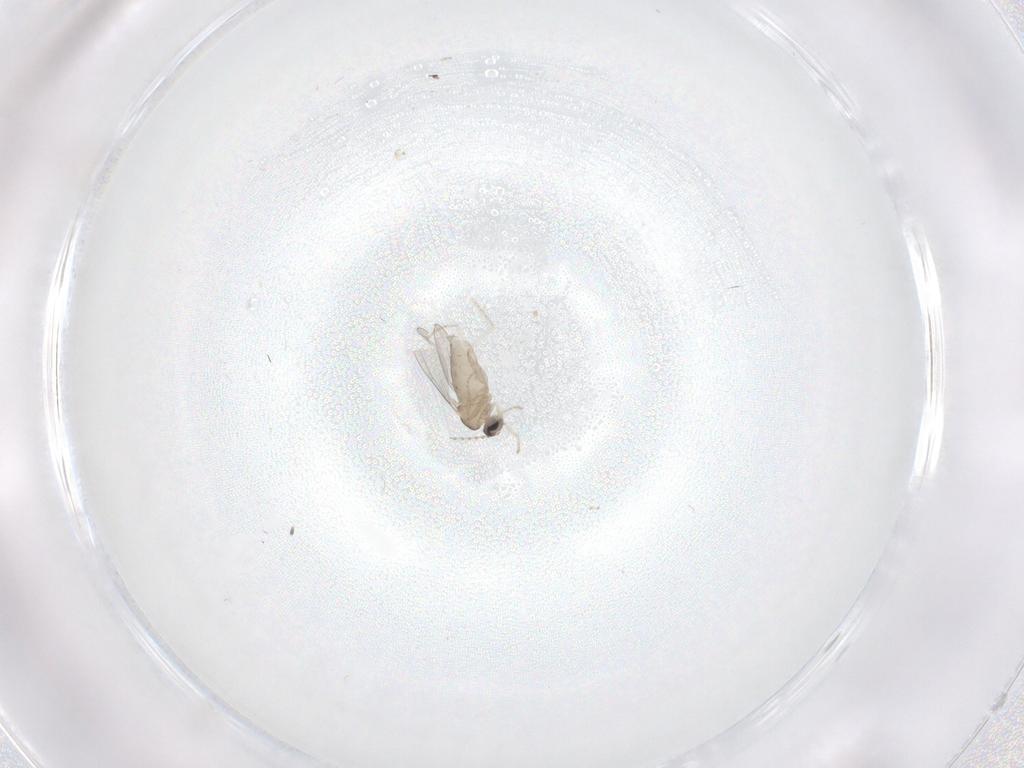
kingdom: Animalia
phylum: Arthropoda
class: Insecta
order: Diptera
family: Cecidomyiidae
